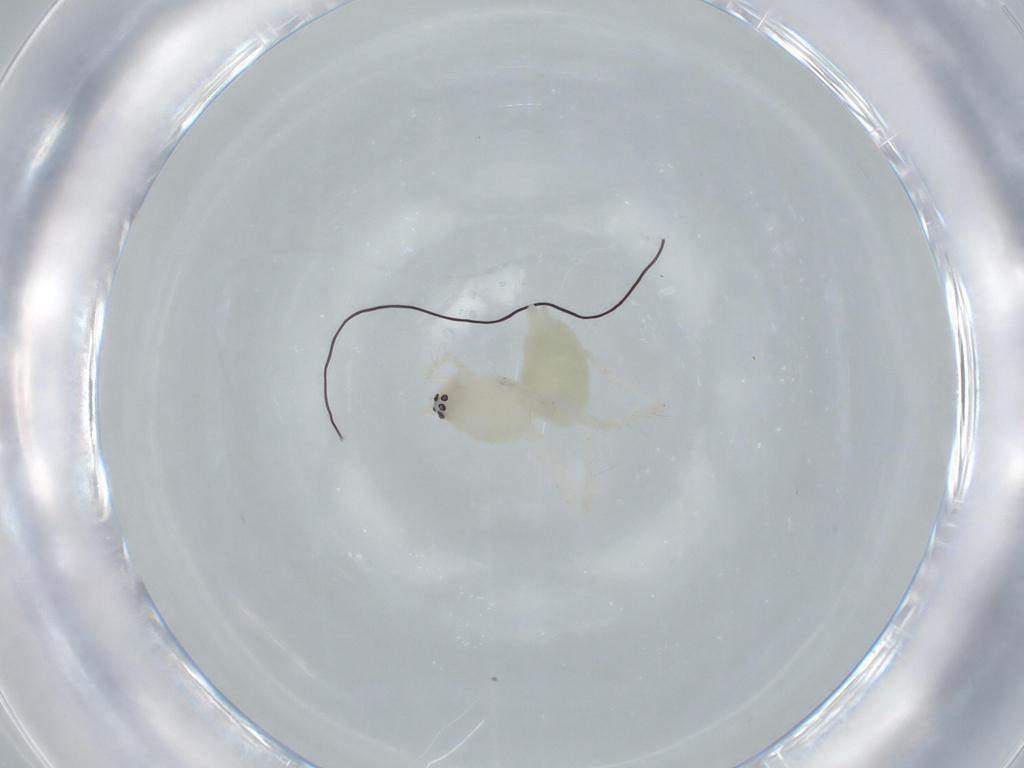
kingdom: Animalia
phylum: Arthropoda
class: Arachnida
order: Araneae
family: Anyphaenidae
